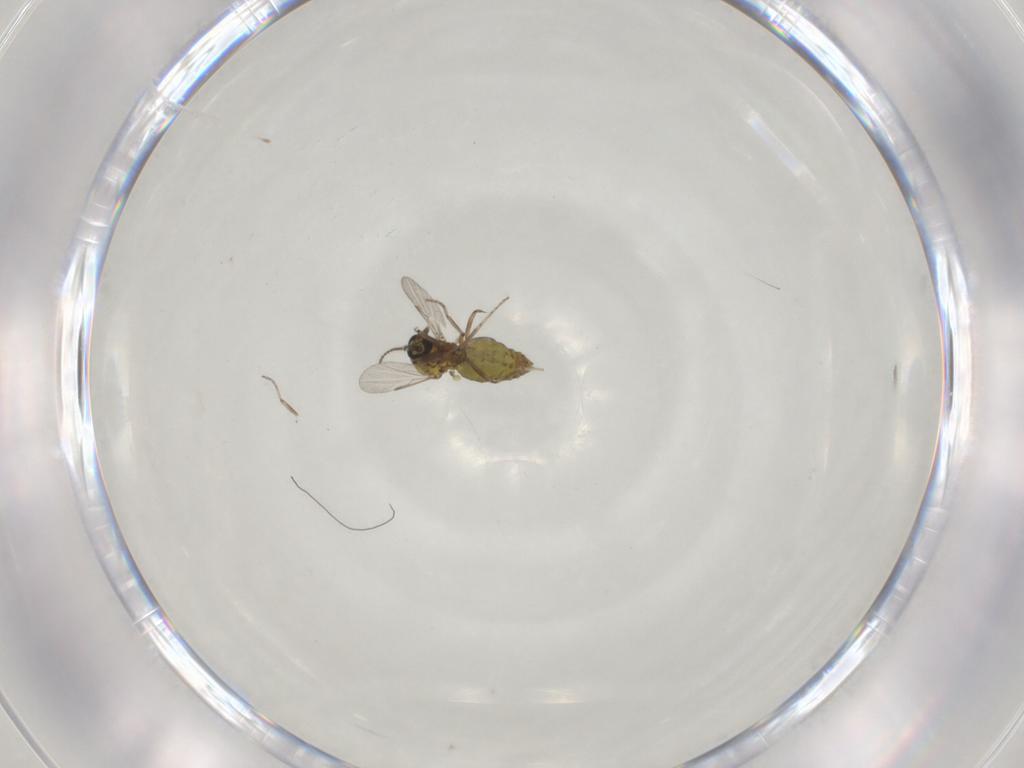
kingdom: Animalia
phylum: Arthropoda
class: Insecta
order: Diptera
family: Ceratopogonidae
